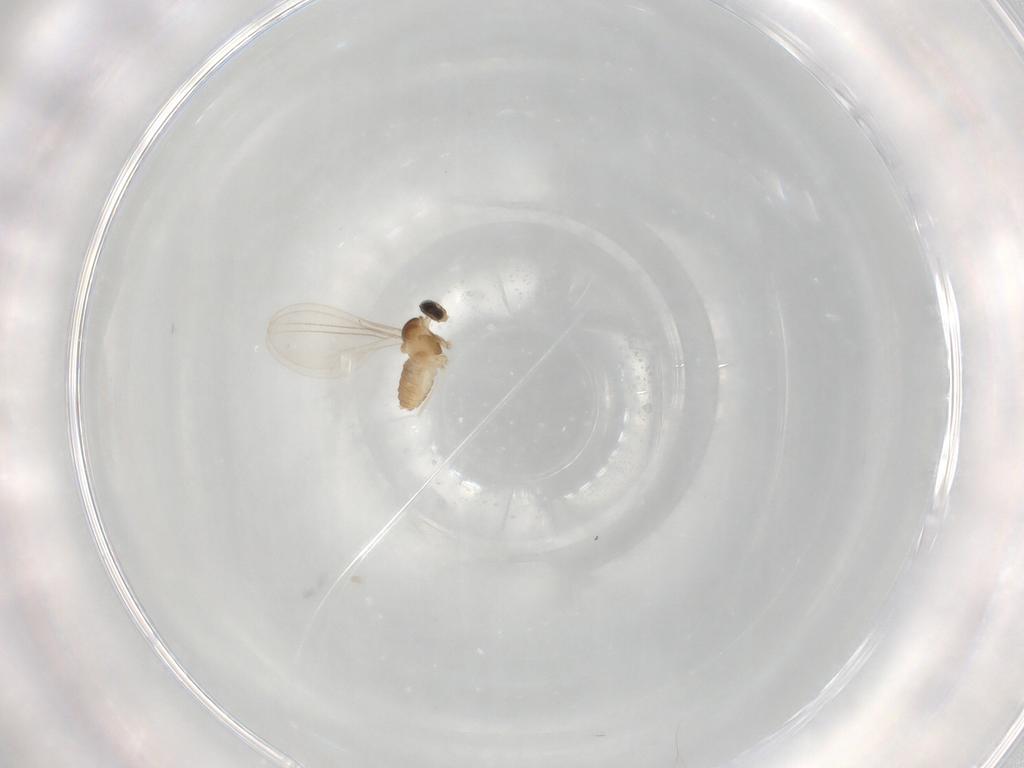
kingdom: Animalia
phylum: Arthropoda
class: Insecta
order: Diptera
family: Cecidomyiidae
